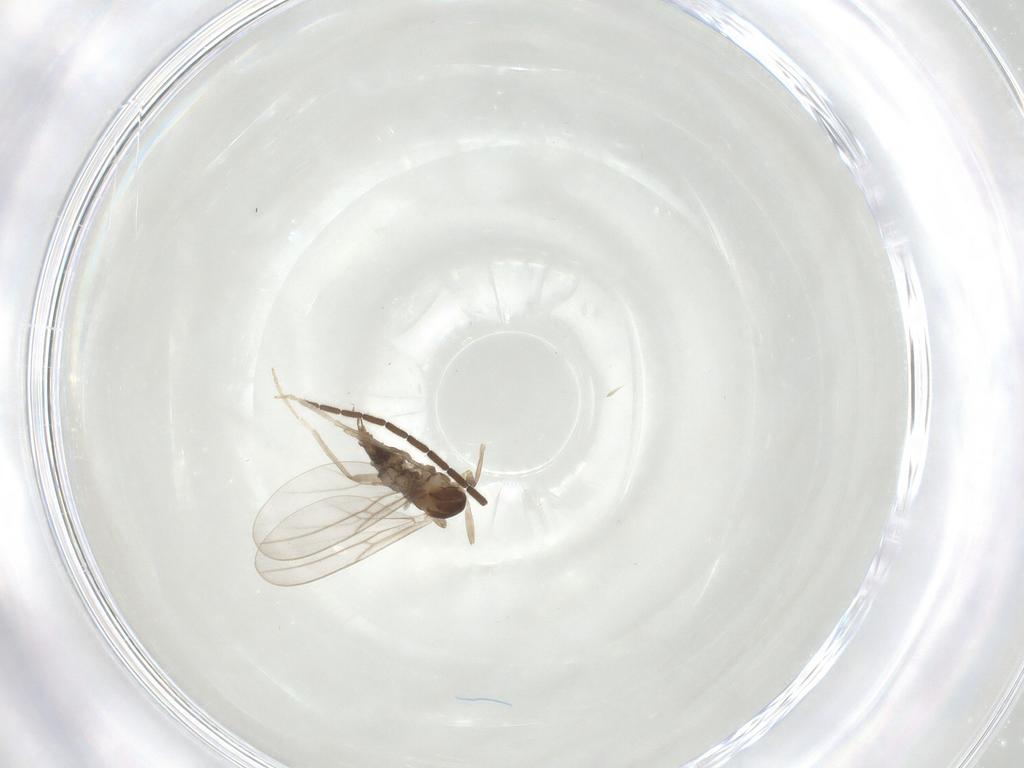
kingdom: Animalia
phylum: Arthropoda
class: Insecta
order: Diptera
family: Cecidomyiidae
